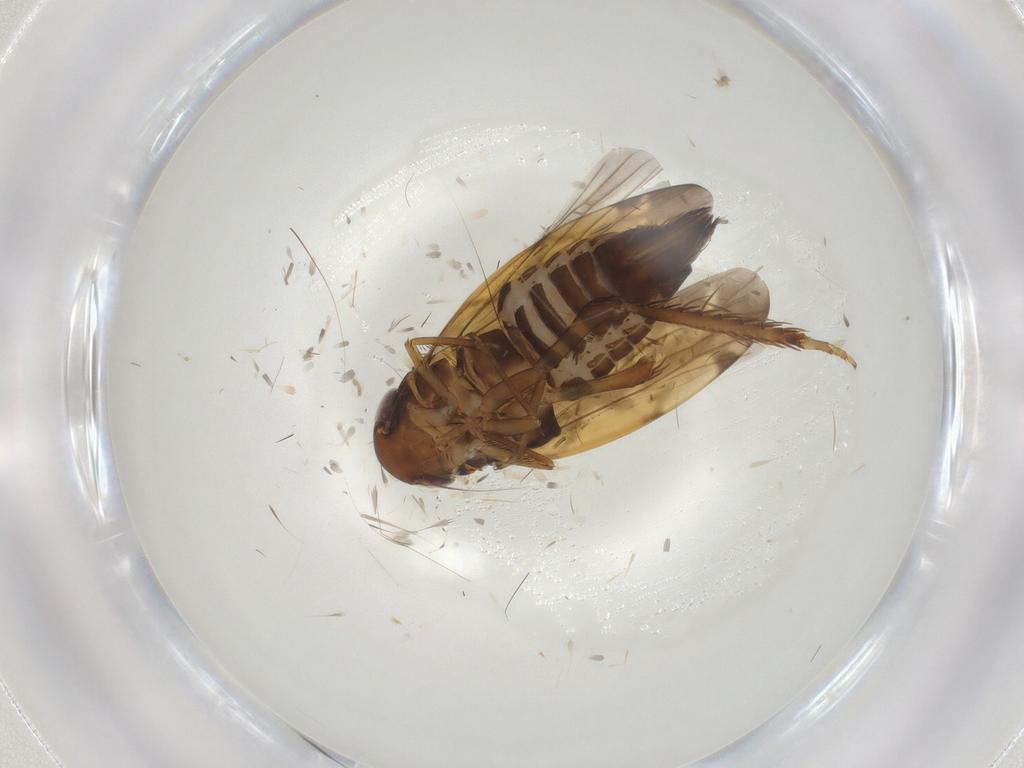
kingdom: Animalia
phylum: Arthropoda
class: Insecta
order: Hemiptera
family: Cicadellidae
